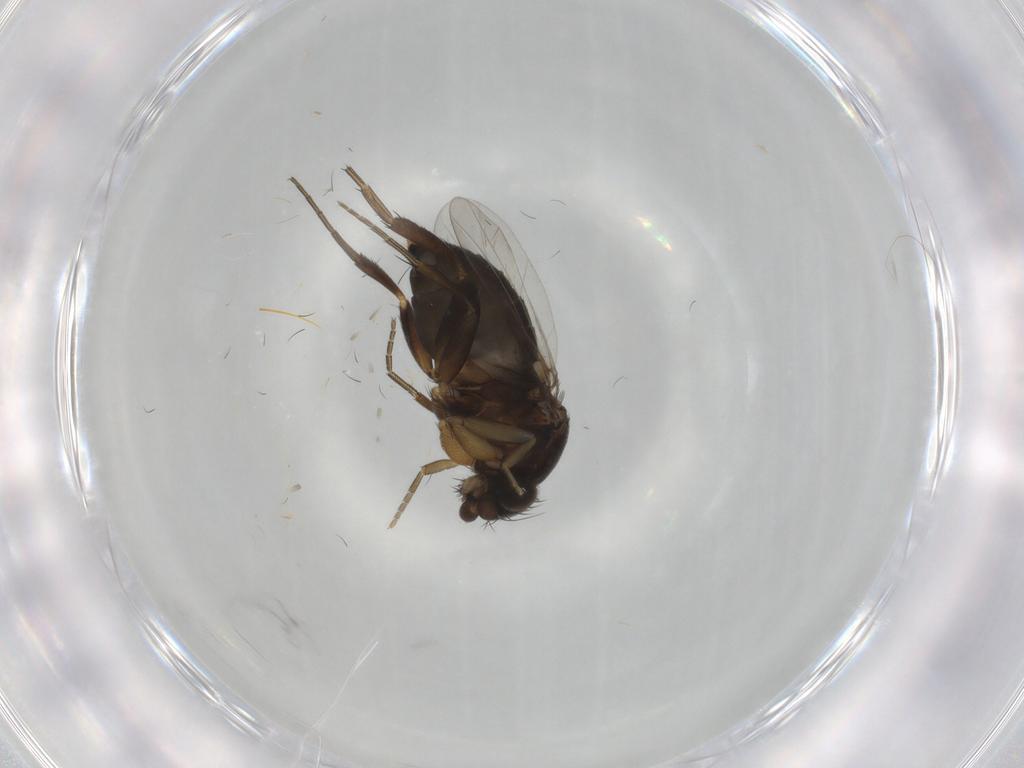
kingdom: Animalia
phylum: Arthropoda
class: Insecta
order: Diptera
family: Phoridae
